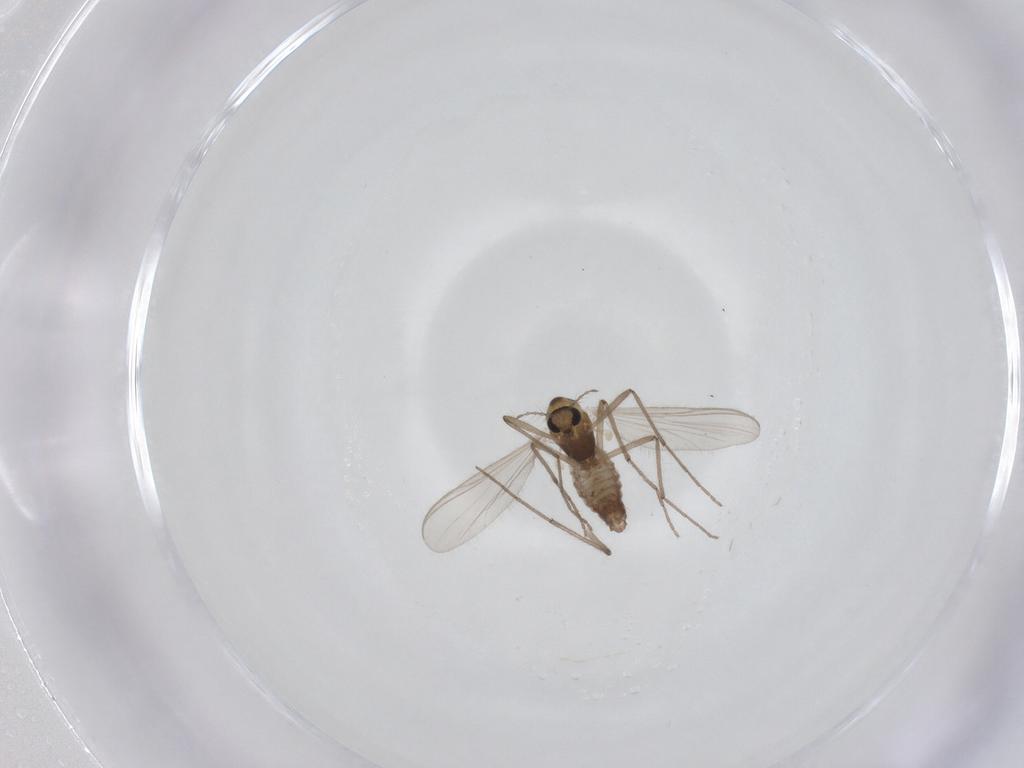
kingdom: Animalia
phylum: Arthropoda
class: Insecta
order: Diptera
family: Chironomidae
